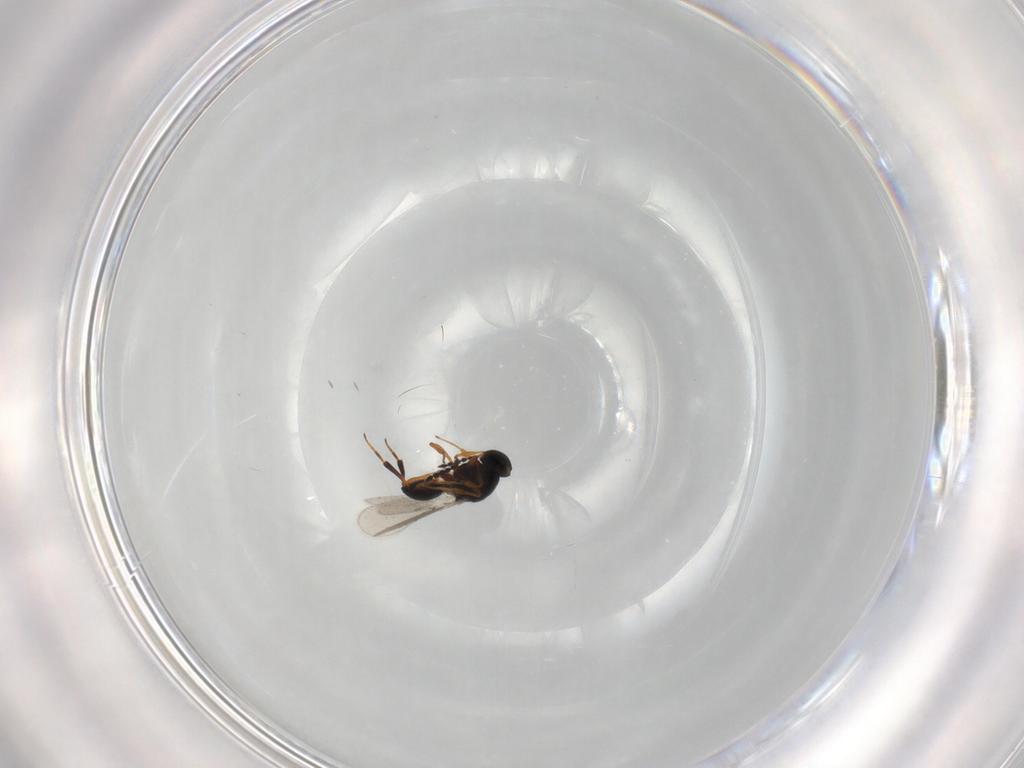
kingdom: Animalia
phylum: Arthropoda
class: Insecta
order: Hymenoptera
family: Platygastridae
